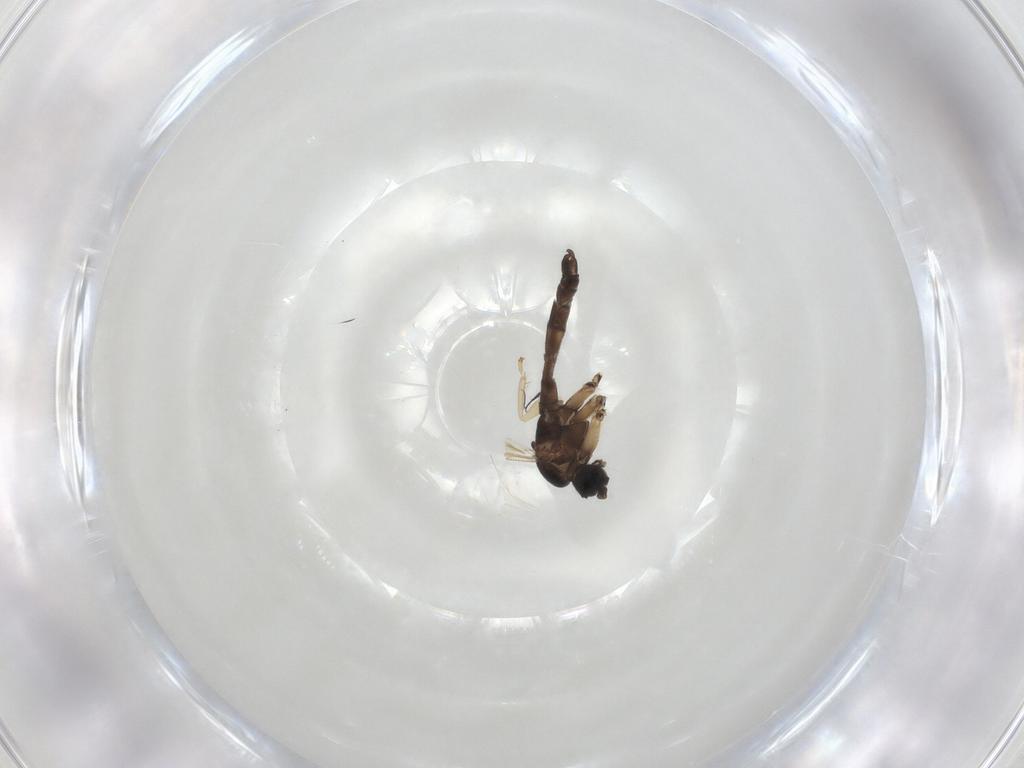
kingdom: Animalia
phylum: Arthropoda
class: Insecta
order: Diptera
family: Sciaridae
